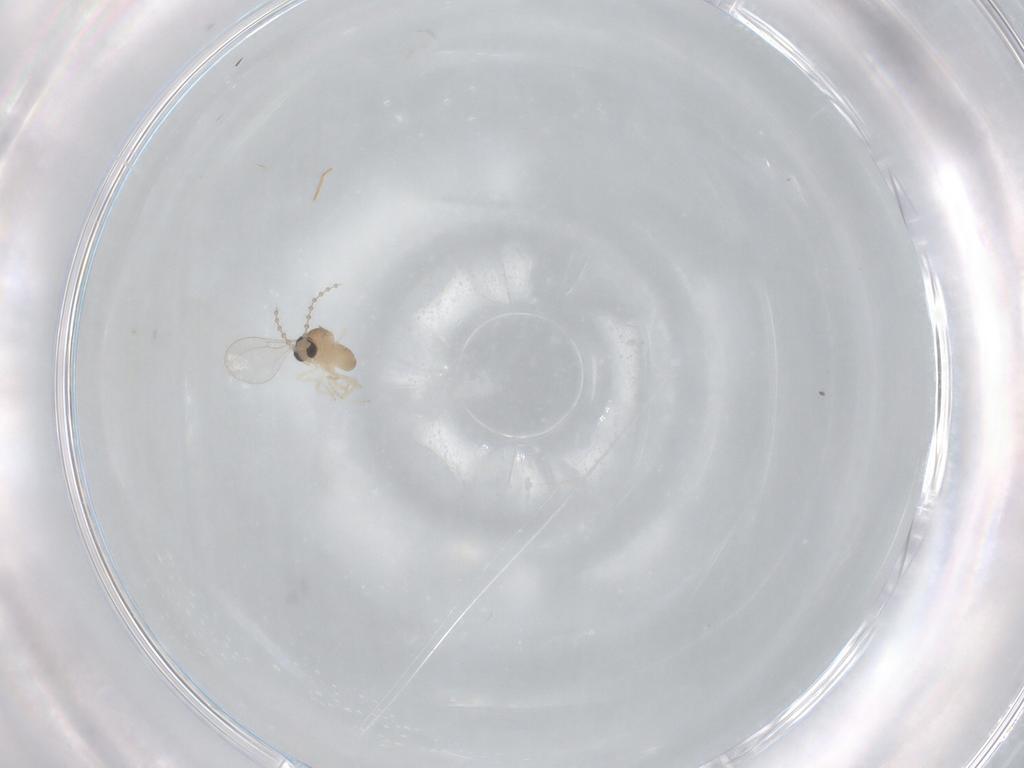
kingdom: Animalia
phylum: Arthropoda
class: Insecta
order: Diptera
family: Cecidomyiidae
